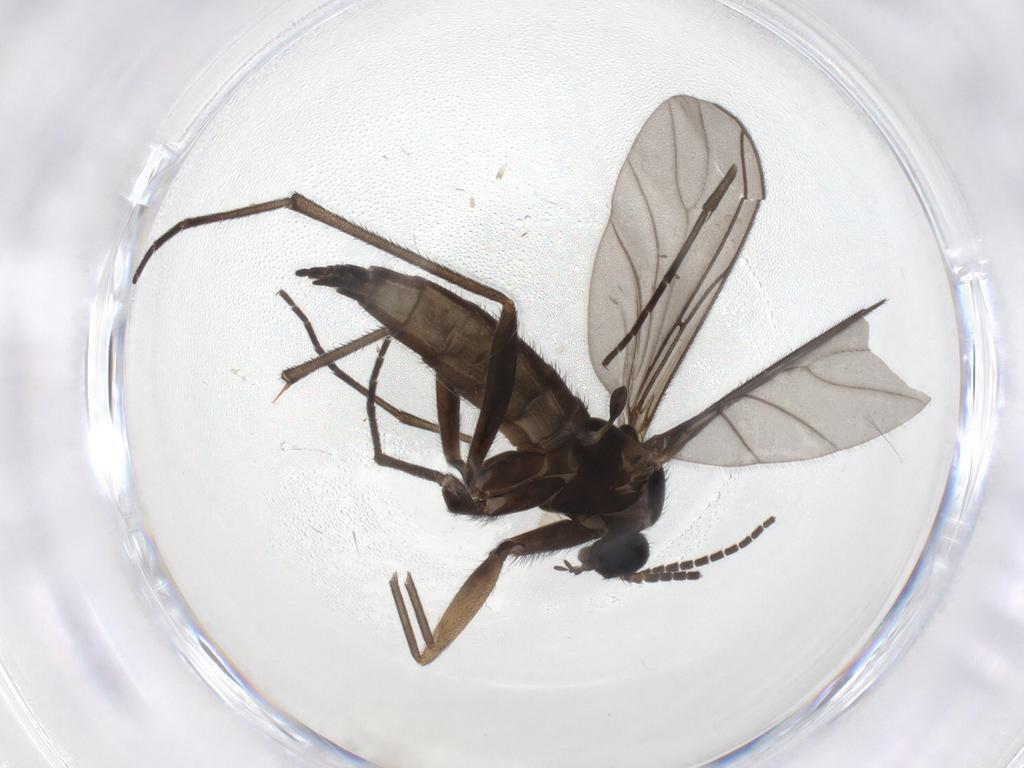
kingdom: Animalia
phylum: Arthropoda
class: Insecta
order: Diptera
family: Sciaridae
